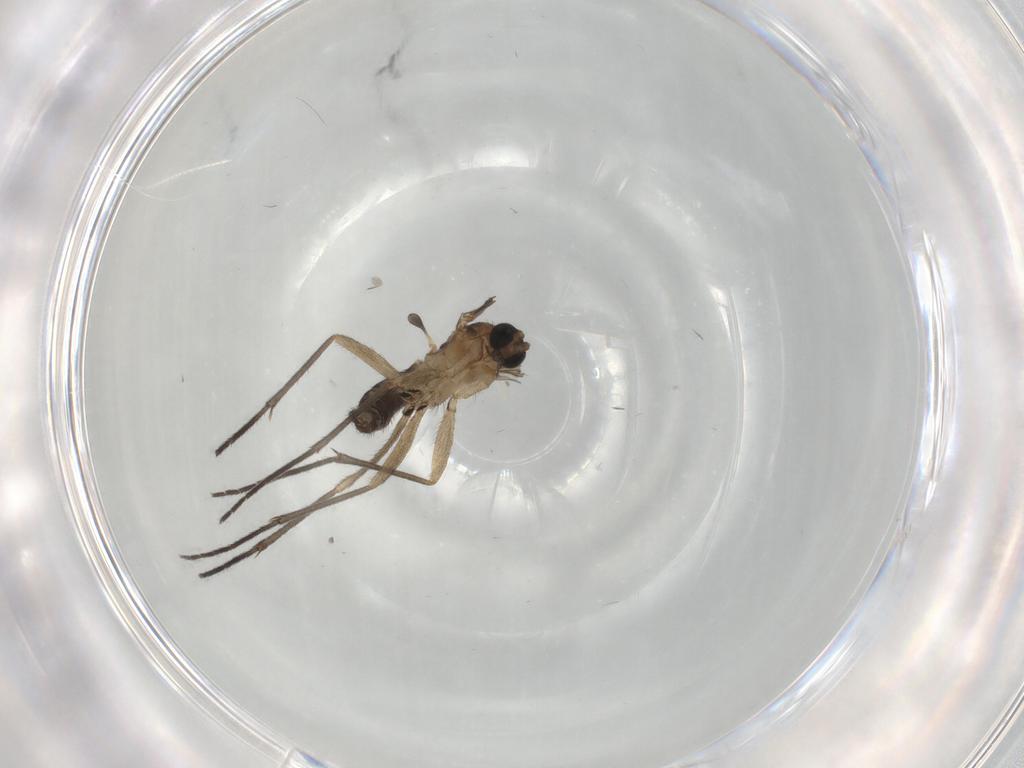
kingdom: Animalia
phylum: Arthropoda
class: Insecta
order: Diptera
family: Sciaridae
